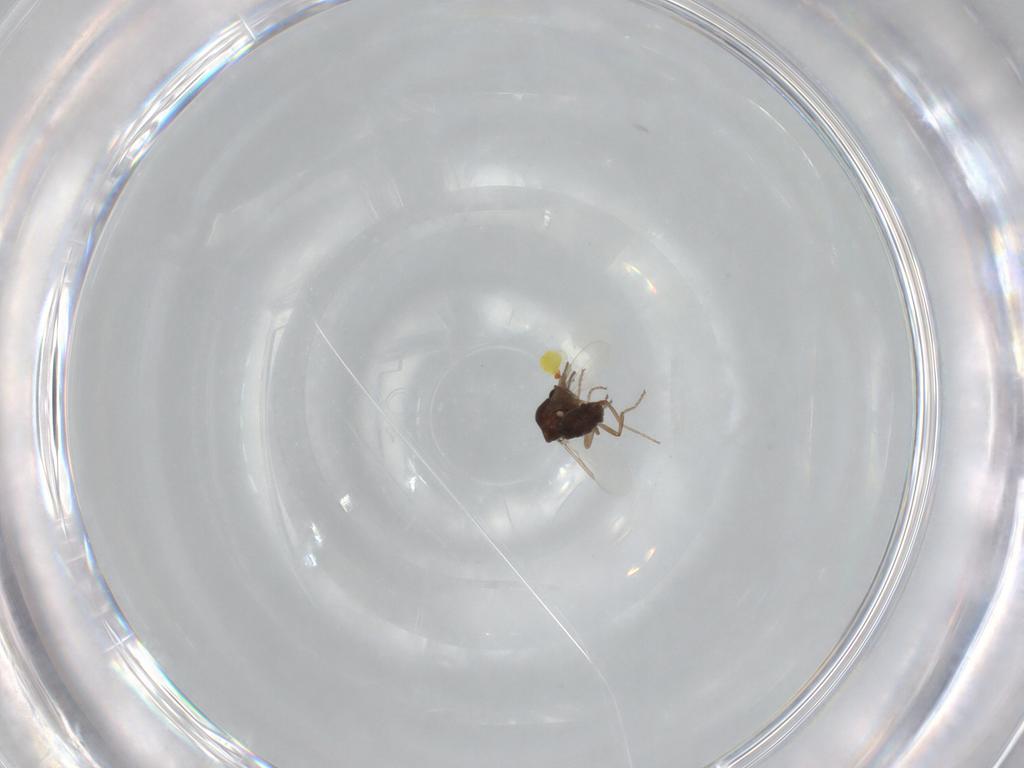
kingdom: Animalia
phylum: Arthropoda
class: Insecta
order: Diptera
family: Ceratopogonidae
